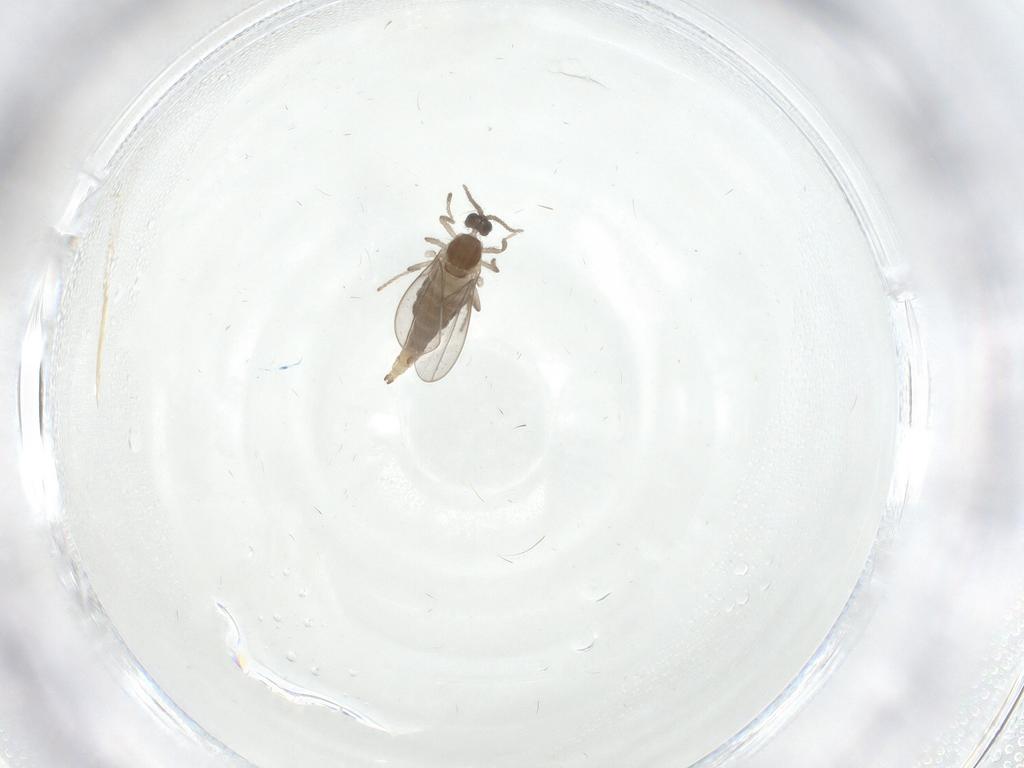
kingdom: Animalia
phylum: Arthropoda
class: Insecta
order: Diptera
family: Cecidomyiidae
